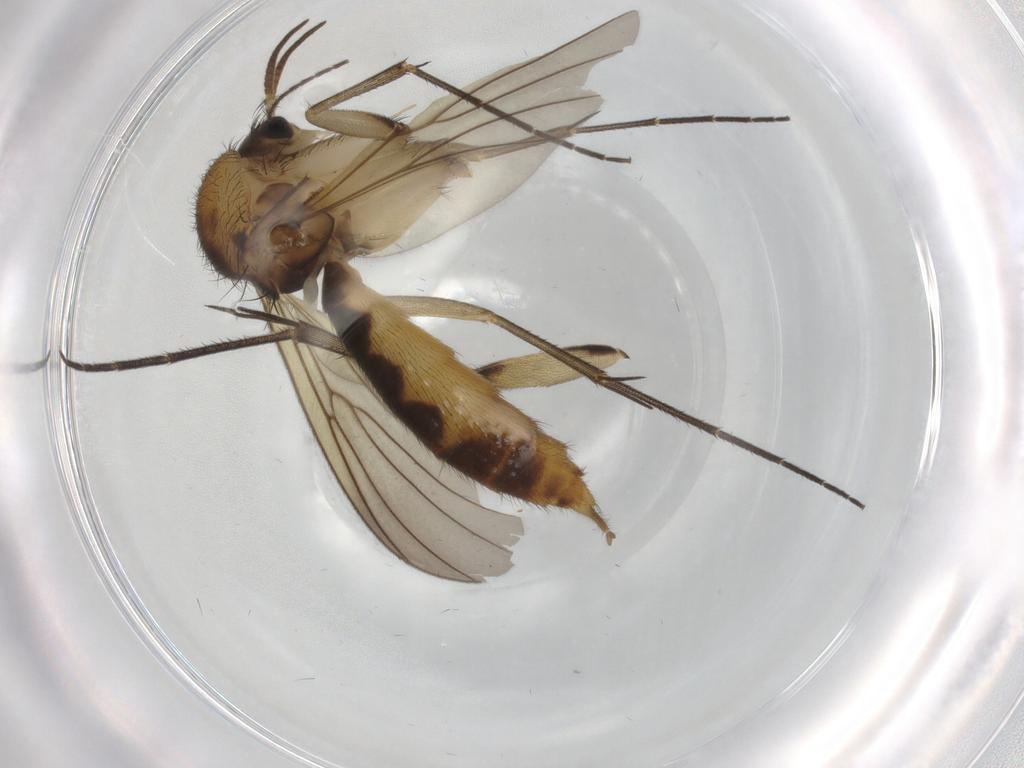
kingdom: Animalia
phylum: Arthropoda
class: Insecta
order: Diptera
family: Mycetophilidae
